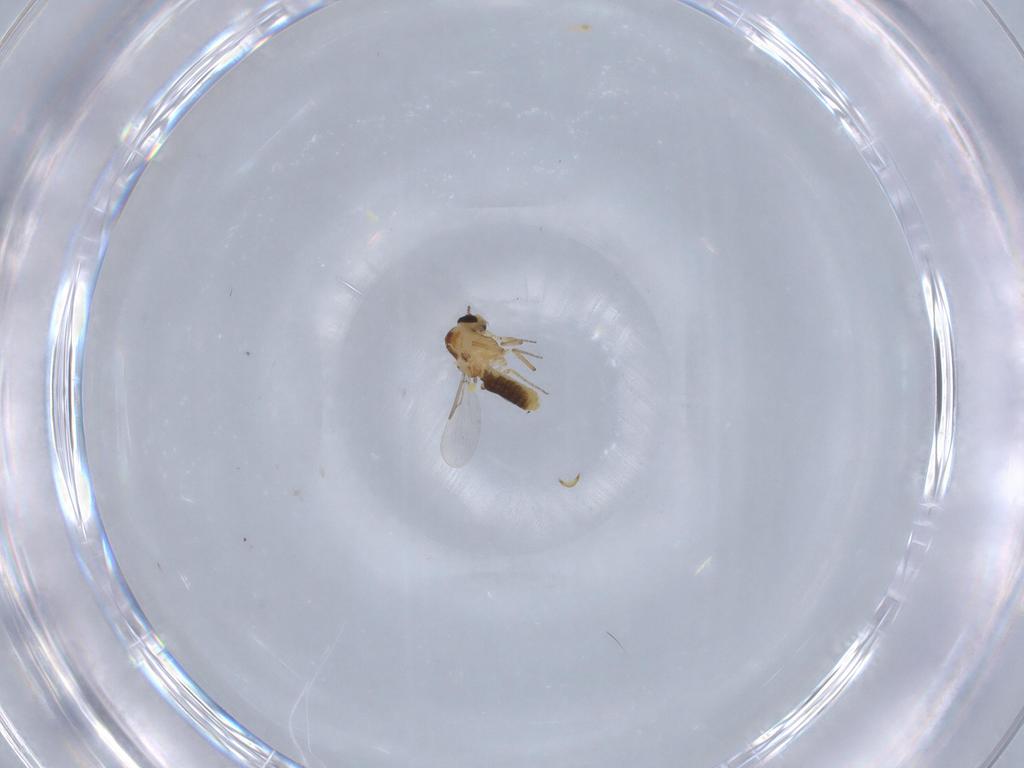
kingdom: Animalia
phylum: Arthropoda
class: Insecta
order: Diptera
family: Ceratopogonidae
